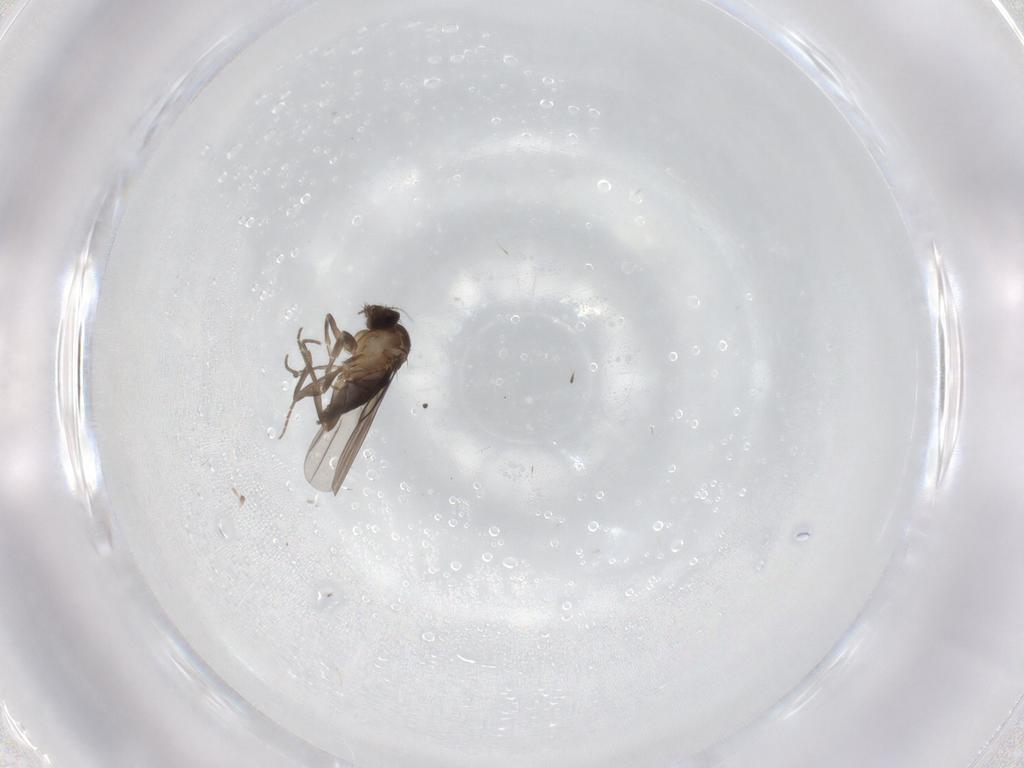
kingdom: Animalia
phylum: Arthropoda
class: Insecta
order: Diptera
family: Phoridae
